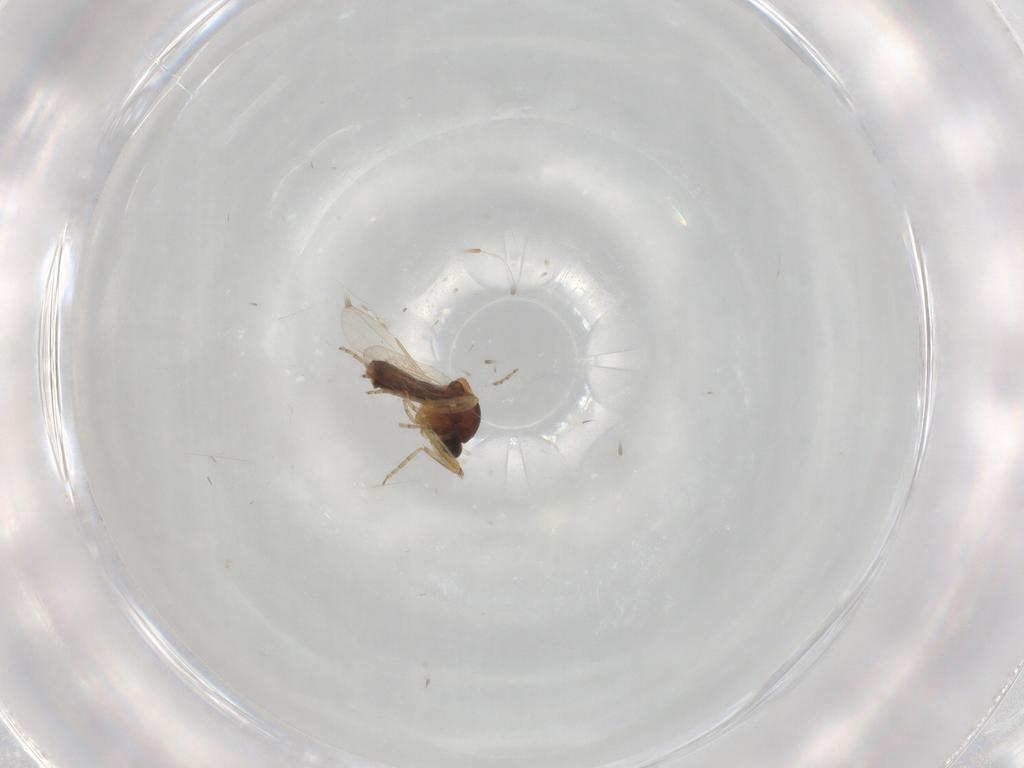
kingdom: Animalia
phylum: Arthropoda
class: Insecta
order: Diptera
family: Ceratopogonidae
